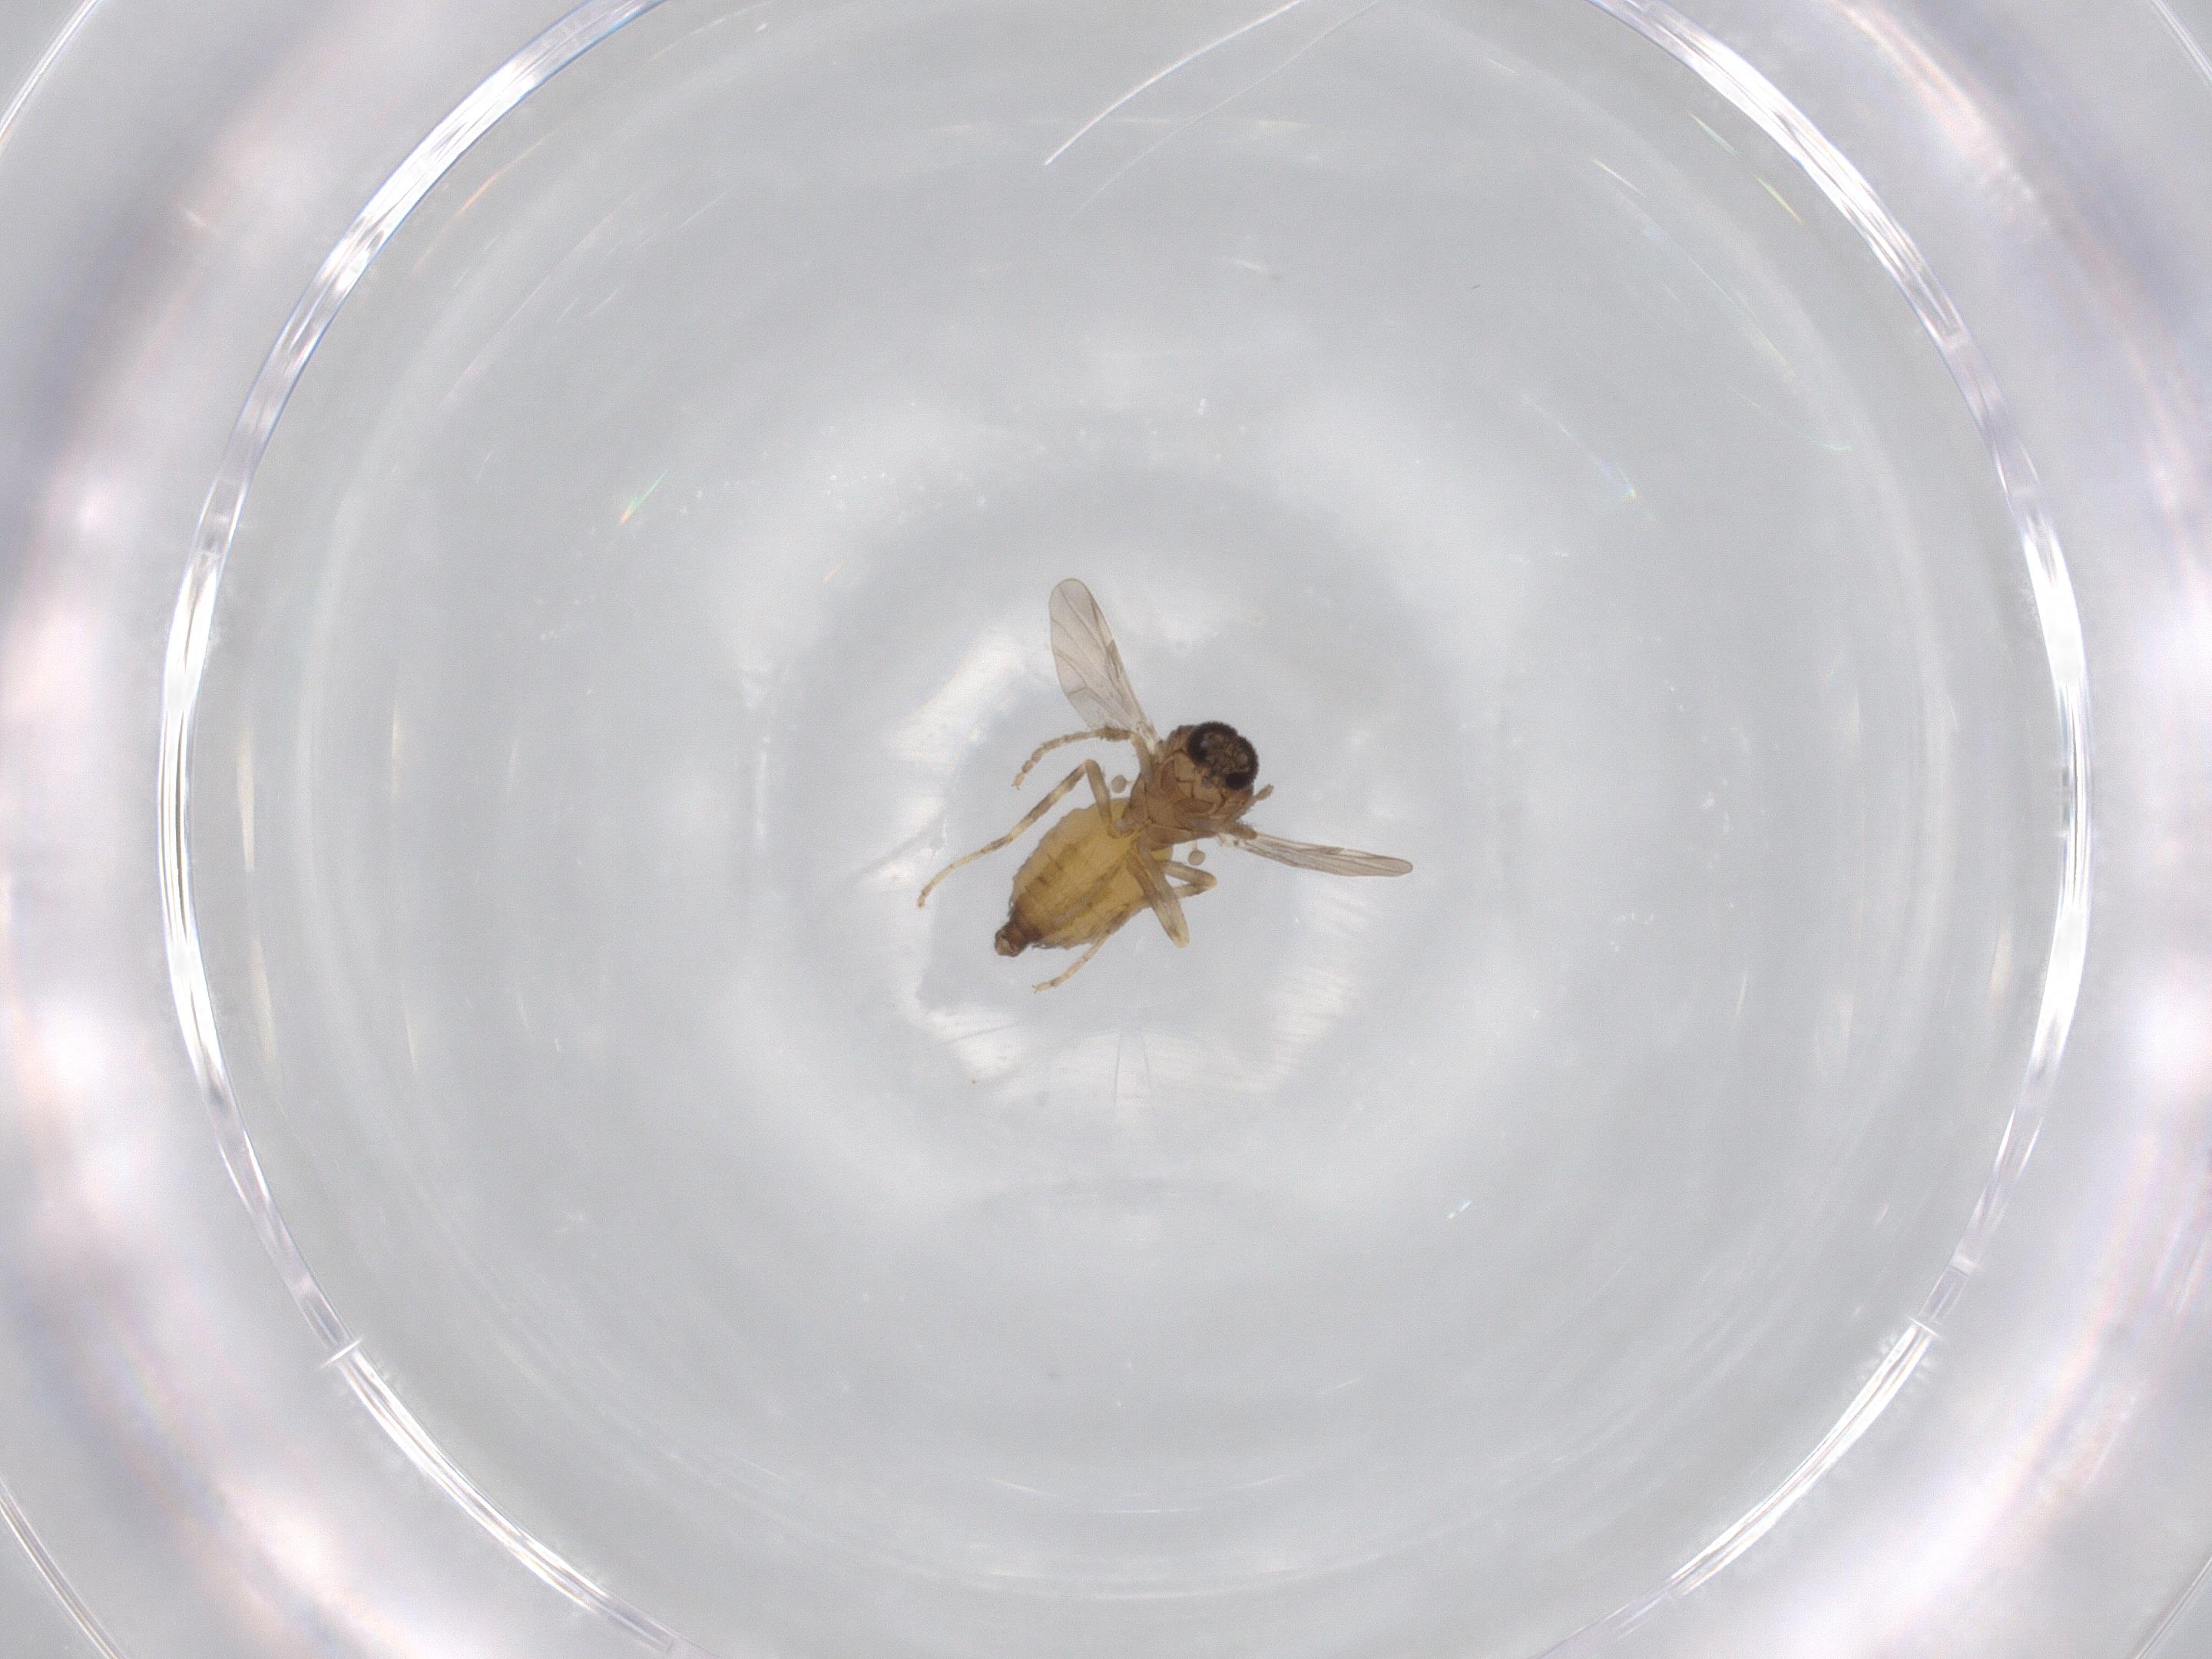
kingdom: Animalia
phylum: Arthropoda
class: Insecta
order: Diptera
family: Ceratopogonidae
